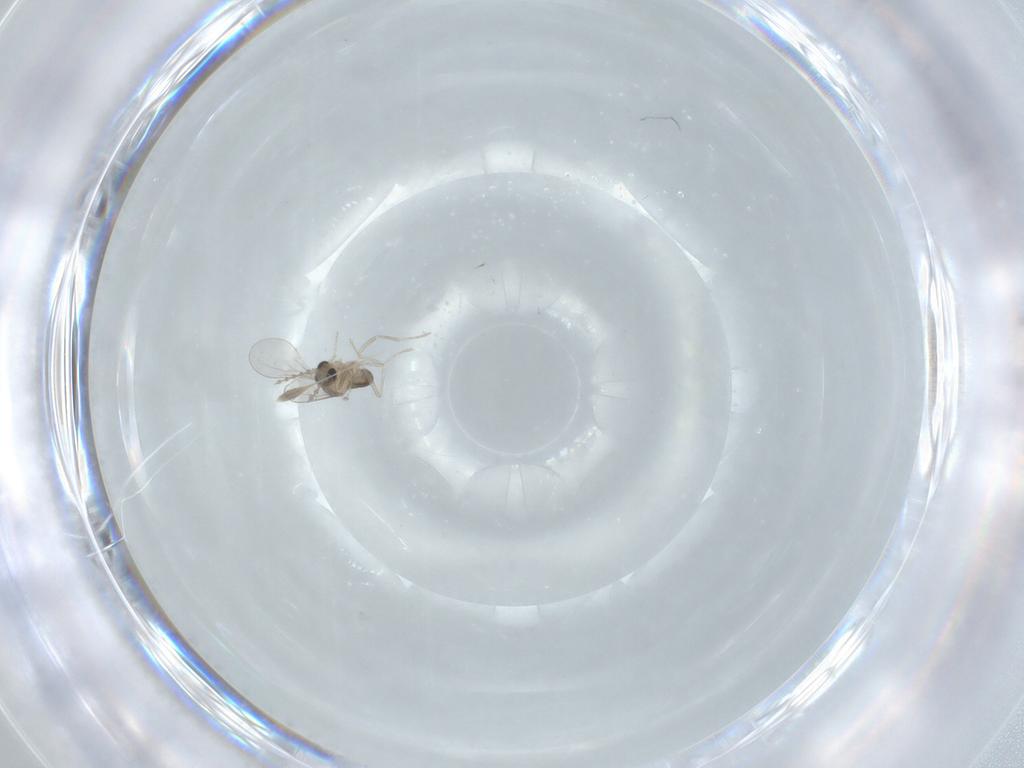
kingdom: Animalia
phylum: Arthropoda
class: Insecta
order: Diptera
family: Cecidomyiidae
